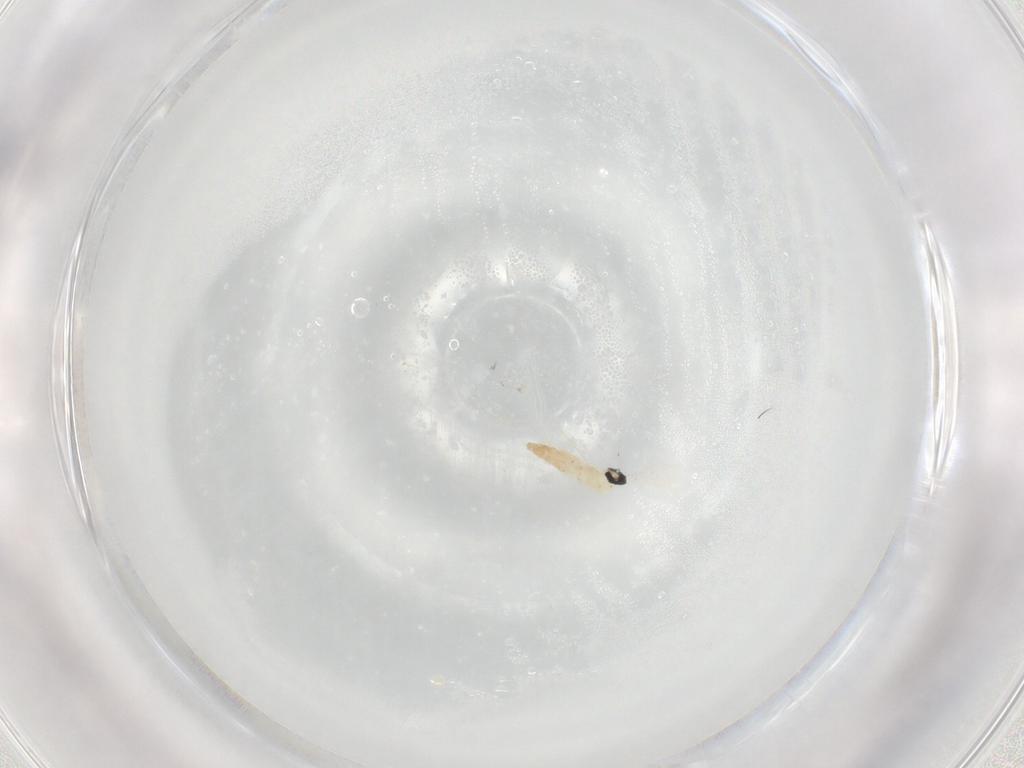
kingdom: Animalia
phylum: Arthropoda
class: Insecta
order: Diptera
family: Cecidomyiidae
